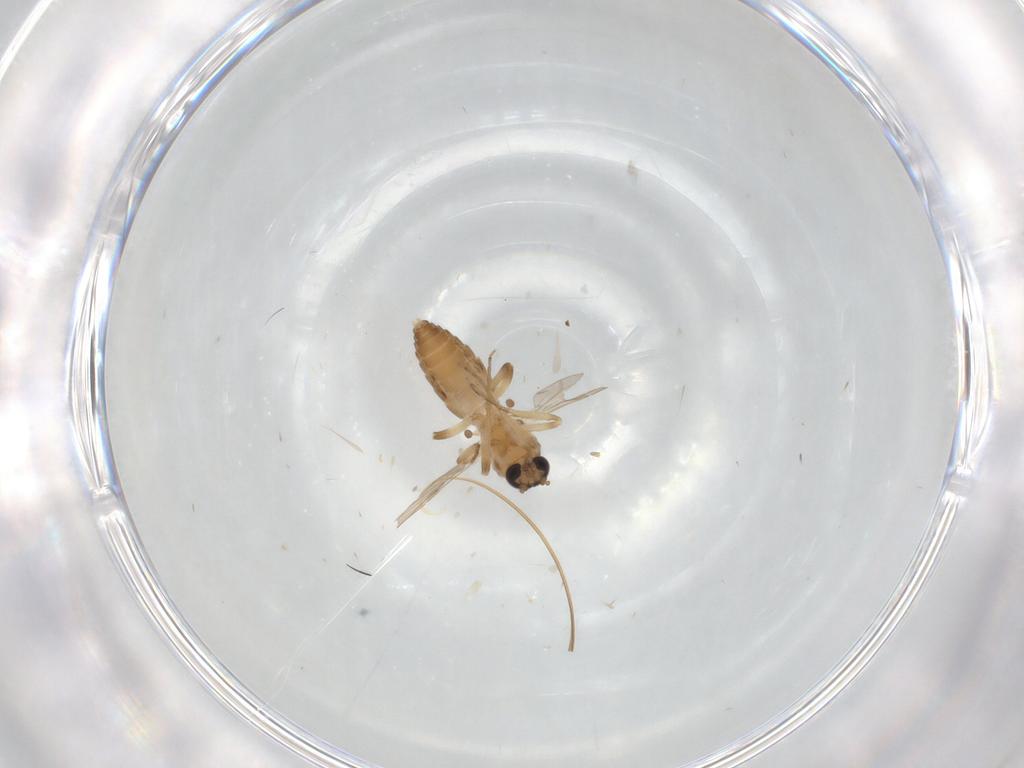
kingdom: Animalia
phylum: Arthropoda
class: Insecta
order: Diptera
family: Ceratopogonidae
